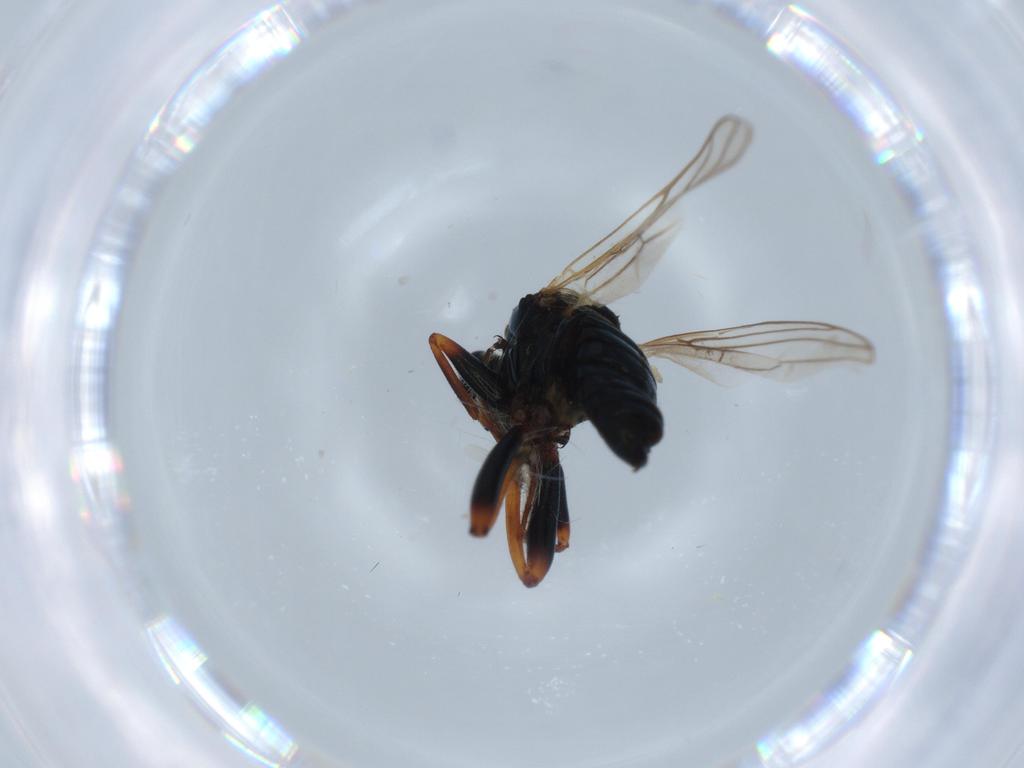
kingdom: Animalia
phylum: Arthropoda
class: Insecta
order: Diptera
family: Hybotidae
